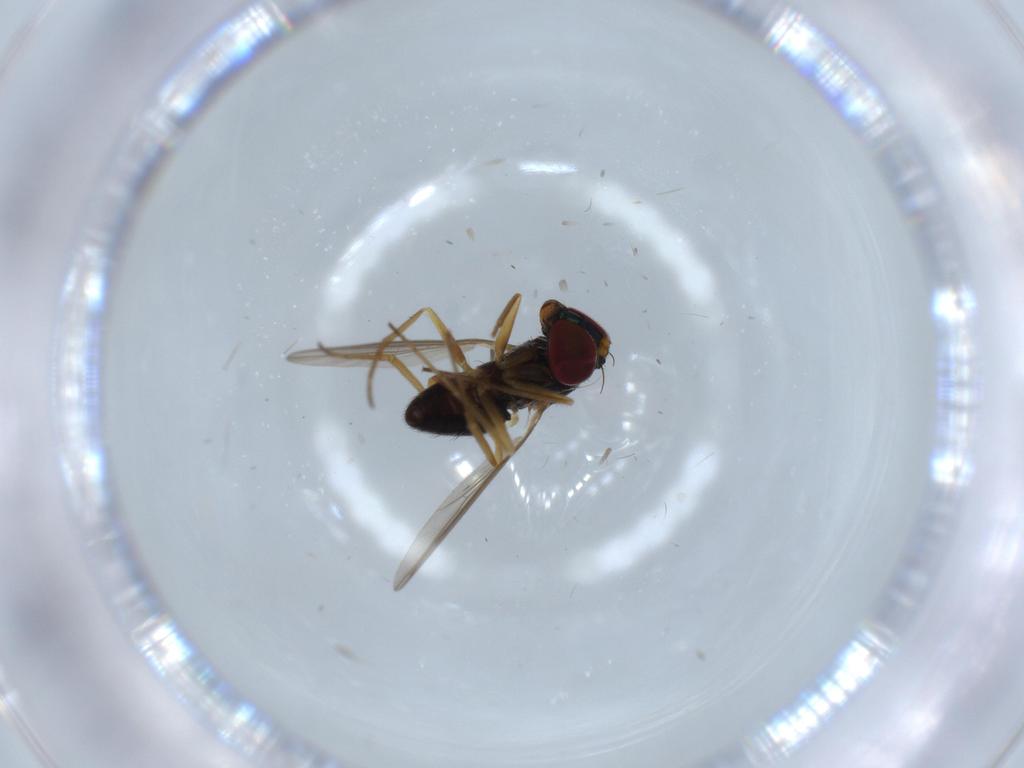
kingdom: Animalia
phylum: Arthropoda
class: Insecta
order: Diptera
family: Dolichopodidae
